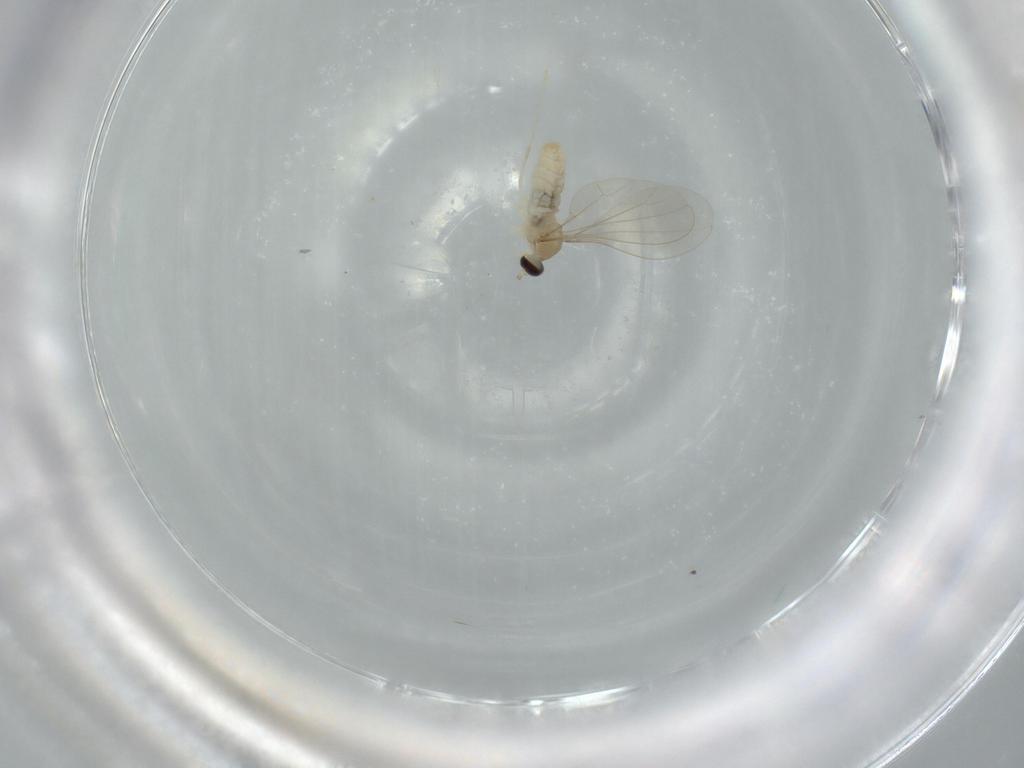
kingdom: Animalia
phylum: Arthropoda
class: Insecta
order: Diptera
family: Cecidomyiidae
